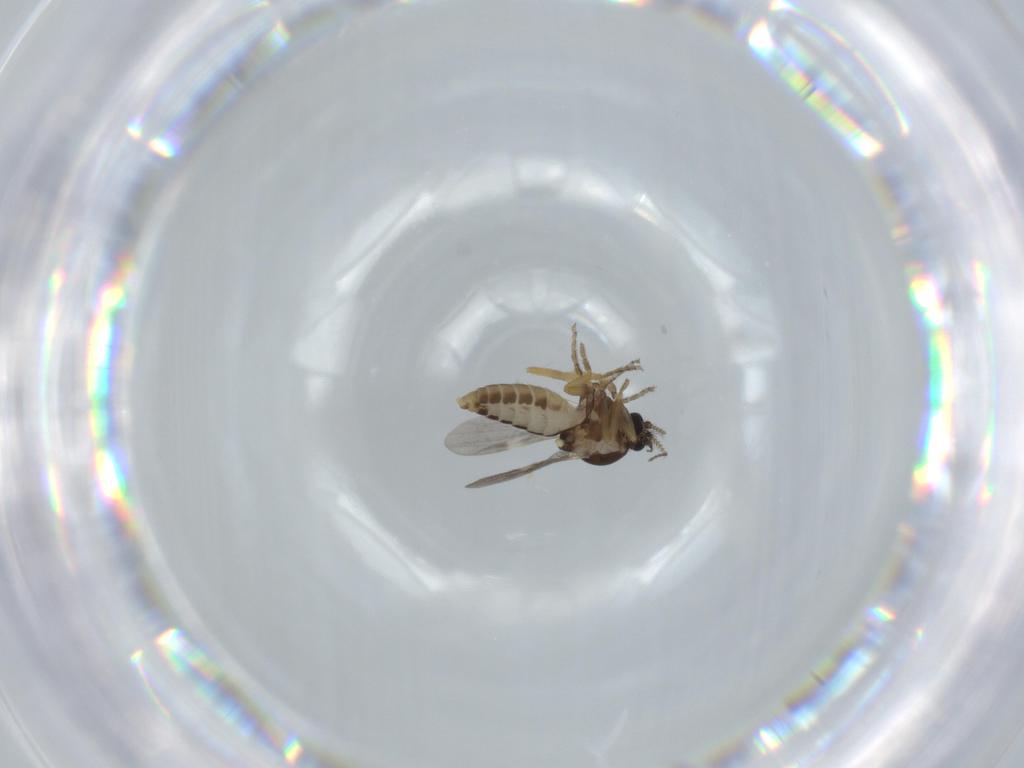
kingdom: Animalia
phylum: Arthropoda
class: Insecta
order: Diptera
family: Ceratopogonidae
